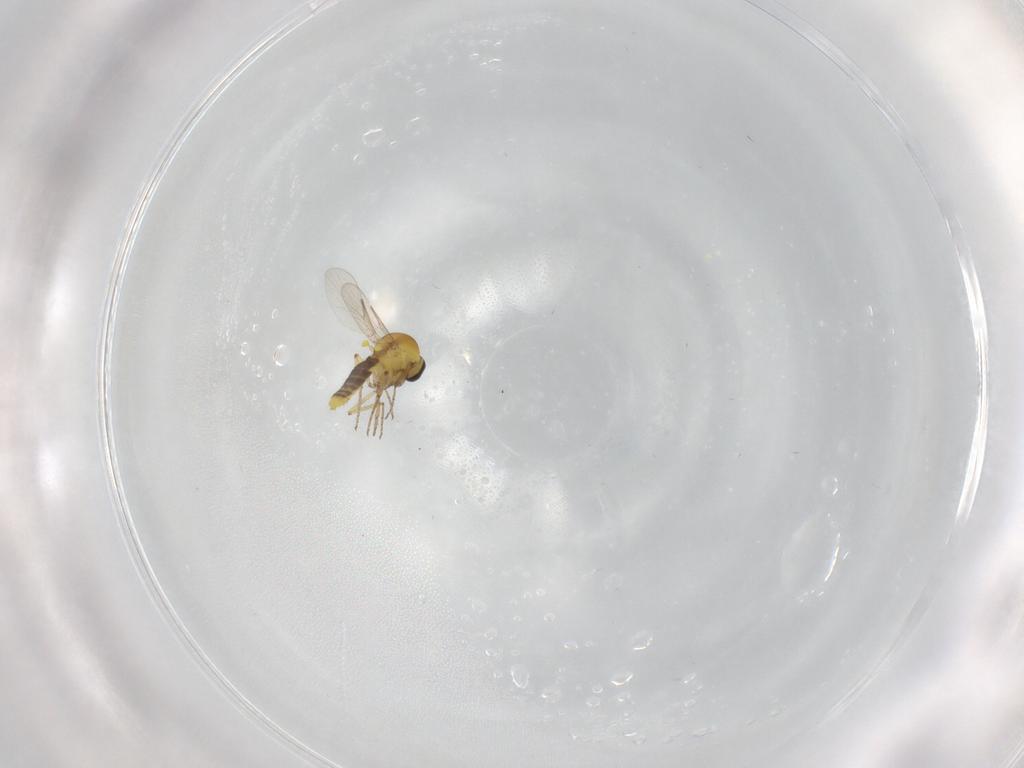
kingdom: Animalia
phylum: Arthropoda
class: Insecta
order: Diptera
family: Ceratopogonidae
